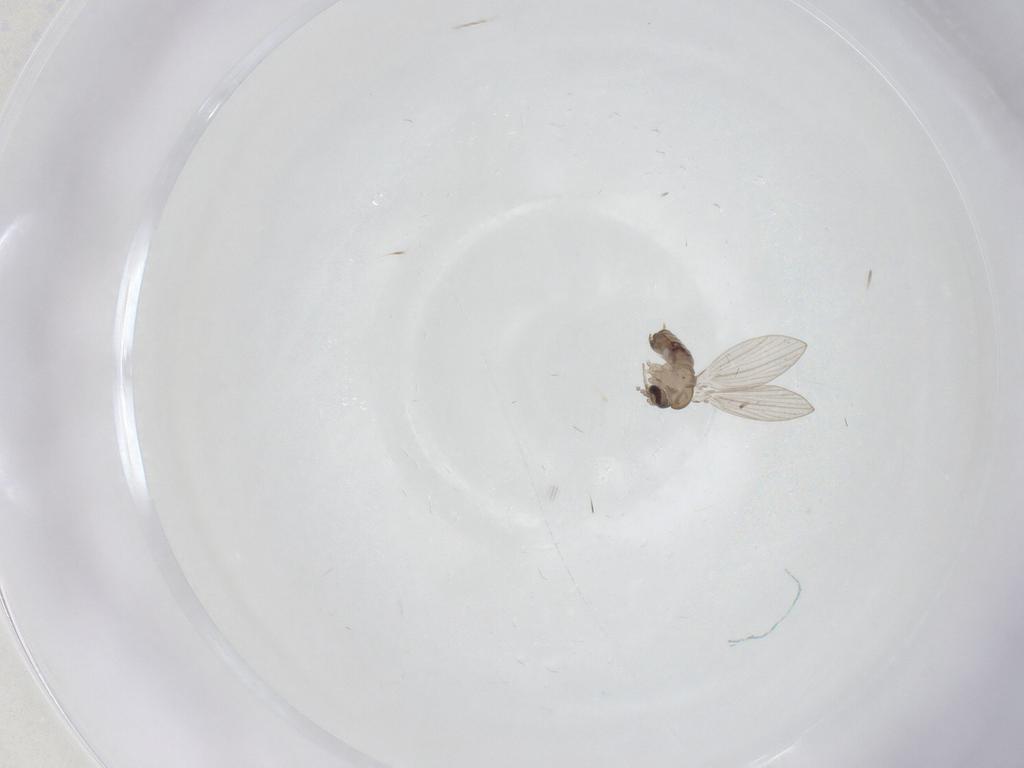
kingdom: Animalia
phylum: Arthropoda
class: Insecta
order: Diptera
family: Psychodidae
